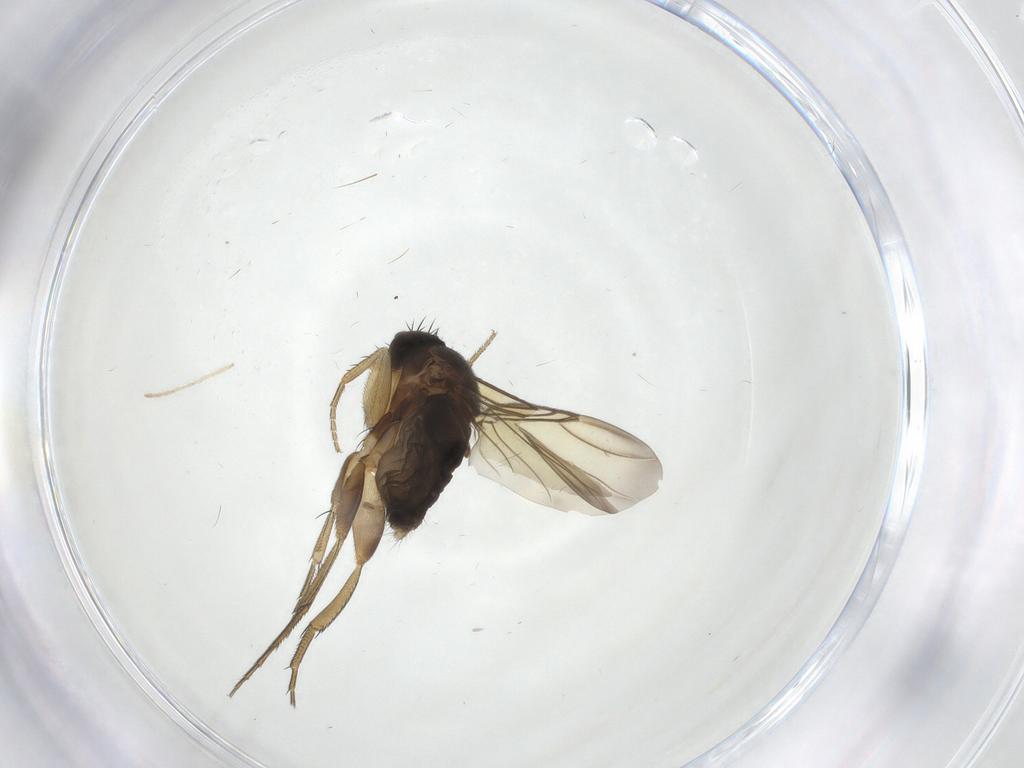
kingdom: Animalia
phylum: Arthropoda
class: Insecta
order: Diptera
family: Phoridae
